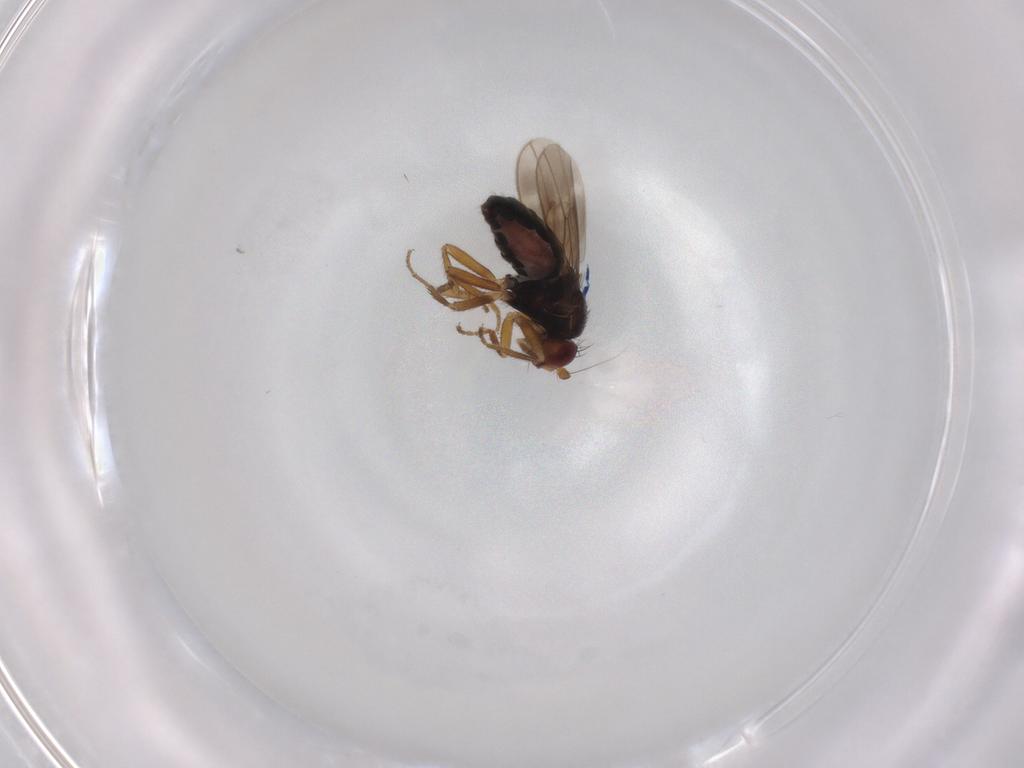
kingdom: Animalia
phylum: Arthropoda
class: Insecta
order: Diptera
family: Sphaeroceridae
